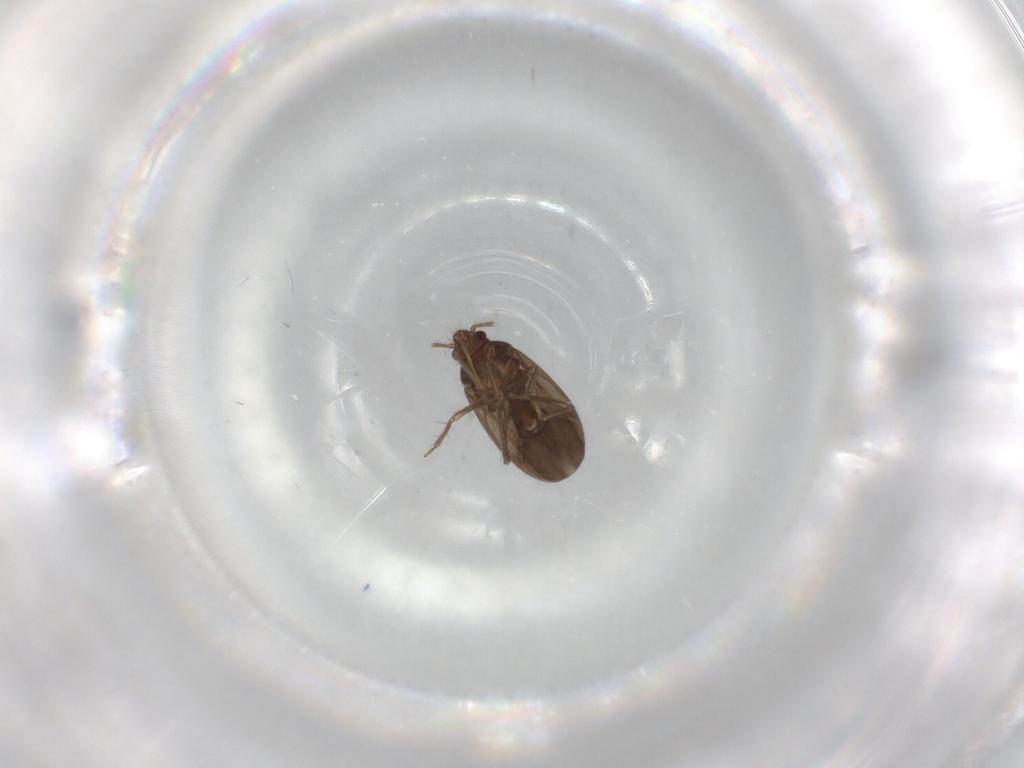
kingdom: Animalia
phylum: Arthropoda
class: Insecta
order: Hemiptera
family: Ceratocombidae
